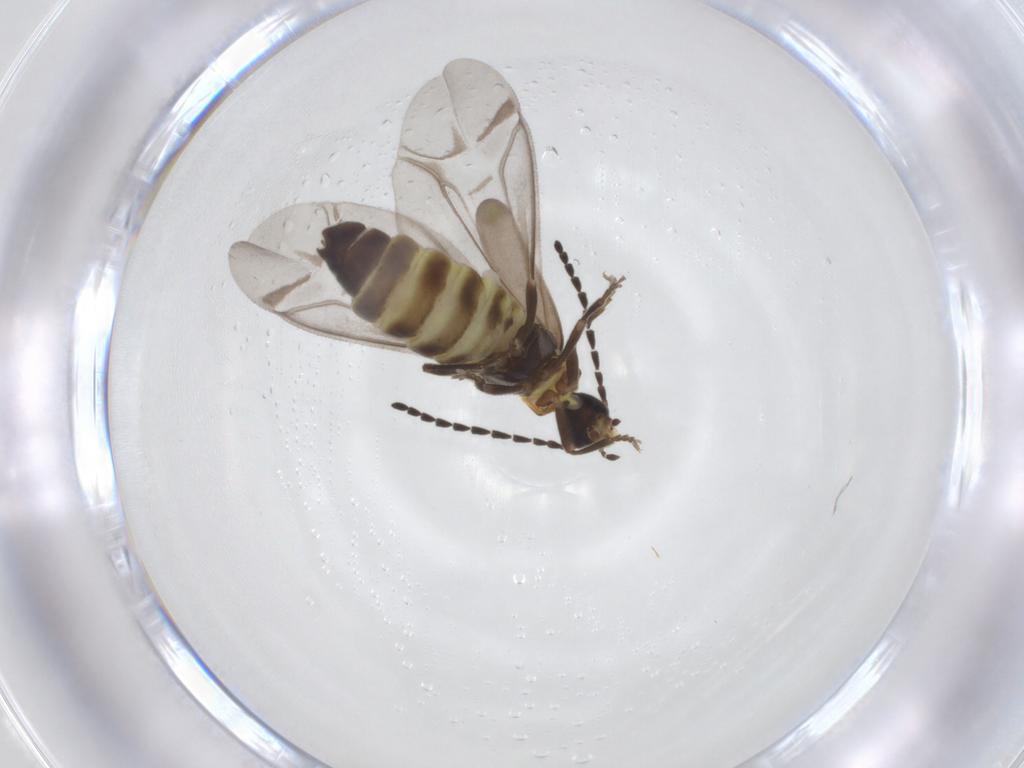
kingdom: Animalia
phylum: Arthropoda
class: Insecta
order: Coleoptera
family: Cantharidae
